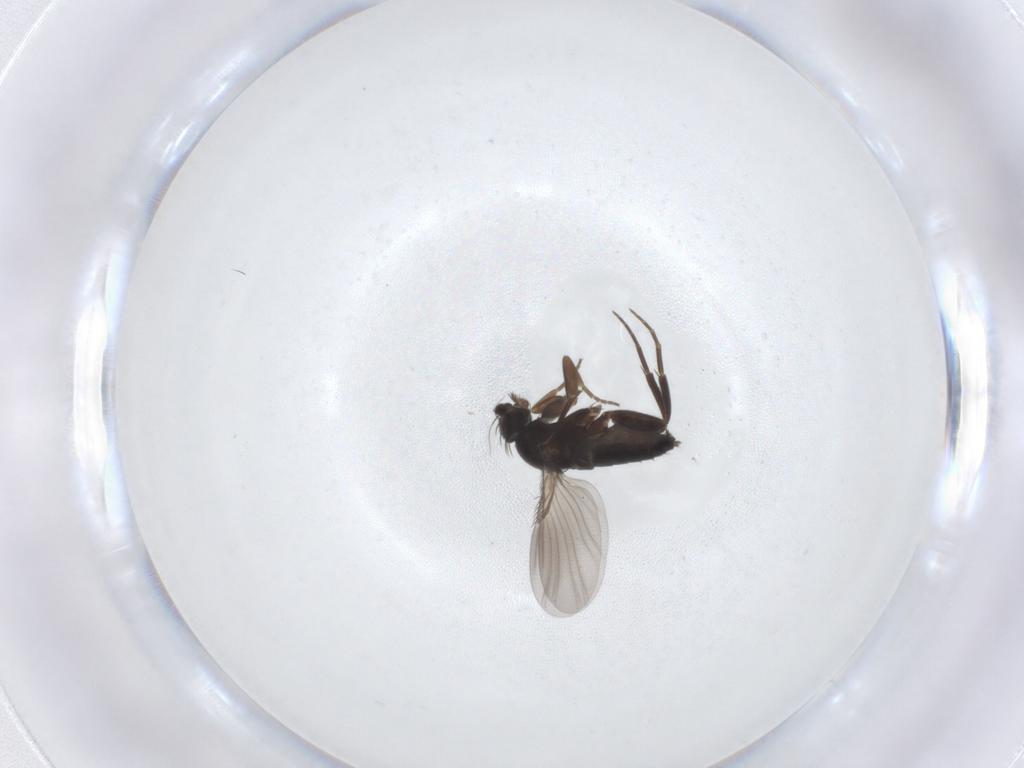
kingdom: Animalia
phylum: Arthropoda
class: Insecta
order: Diptera
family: Phoridae
